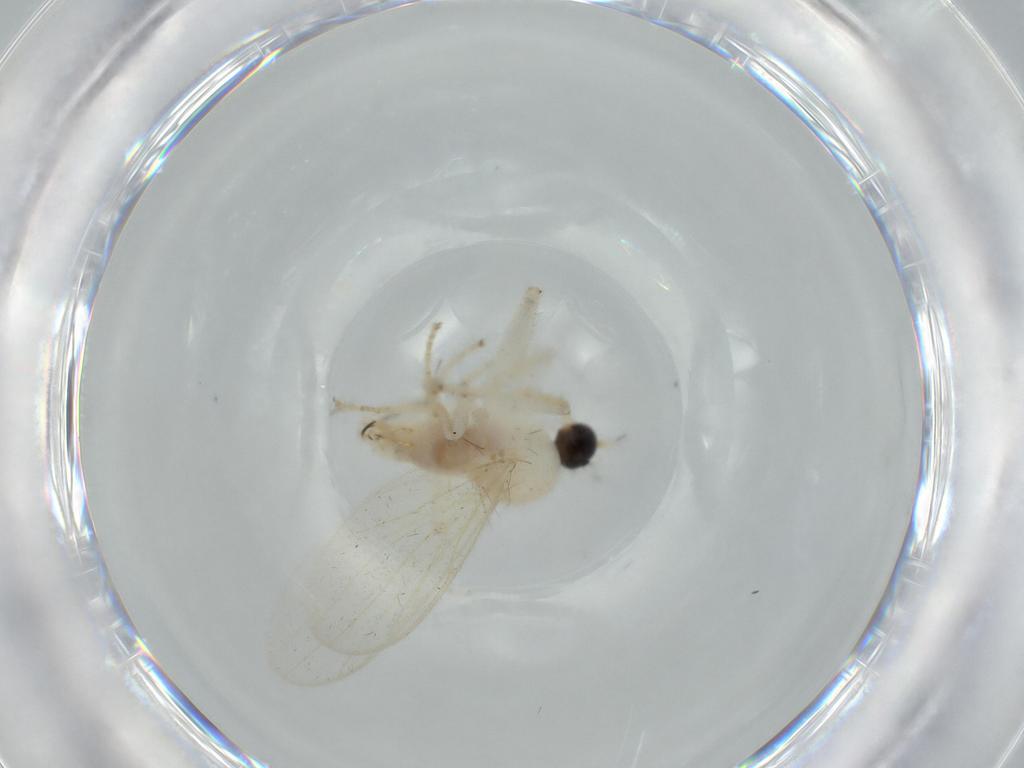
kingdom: Animalia
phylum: Arthropoda
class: Insecta
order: Diptera
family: Hybotidae
